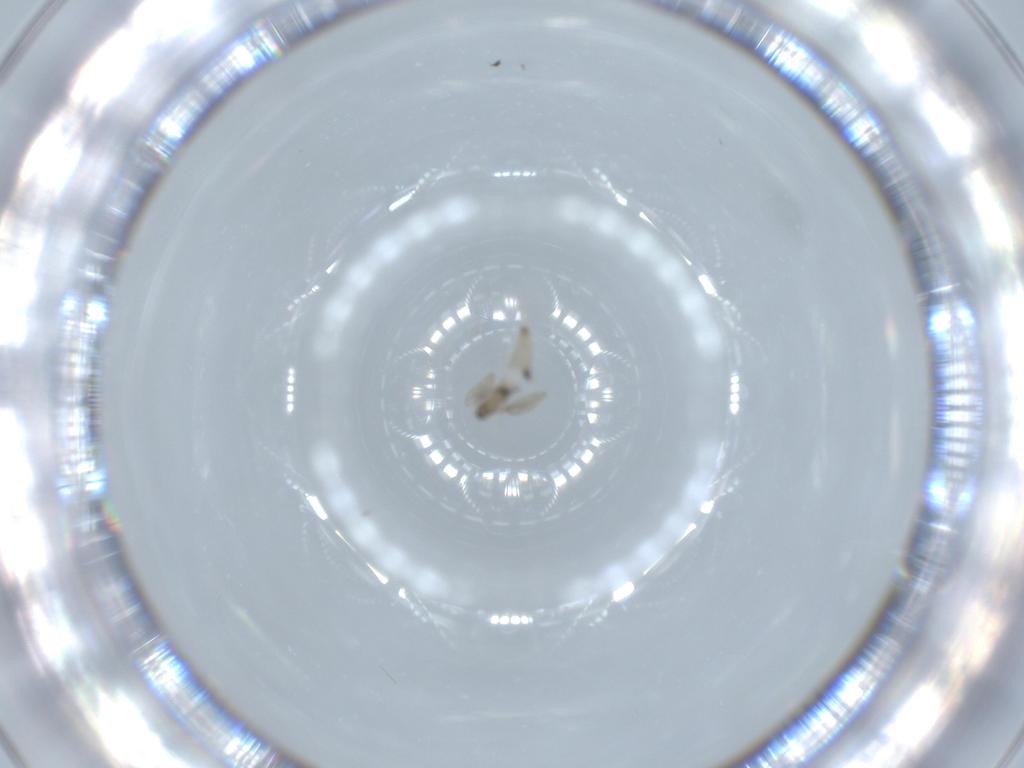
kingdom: Animalia
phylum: Arthropoda
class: Insecta
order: Diptera
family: Cecidomyiidae
